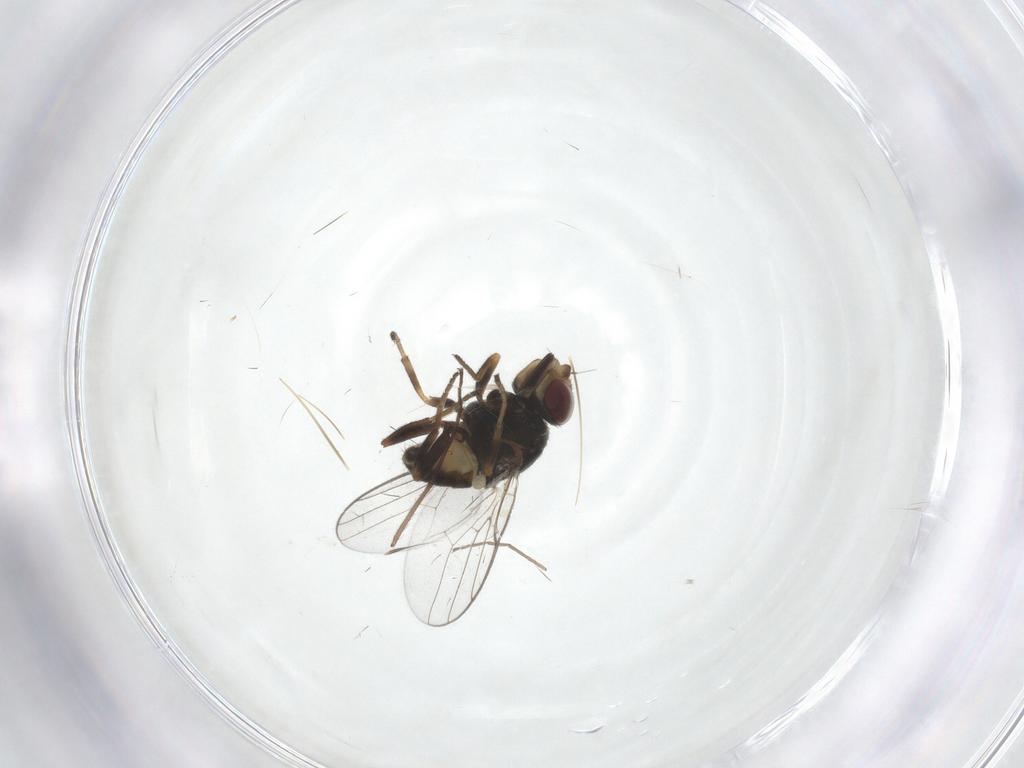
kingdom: Animalia
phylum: Arthropoda
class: Insecta
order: Diptera
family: Chloropidae
